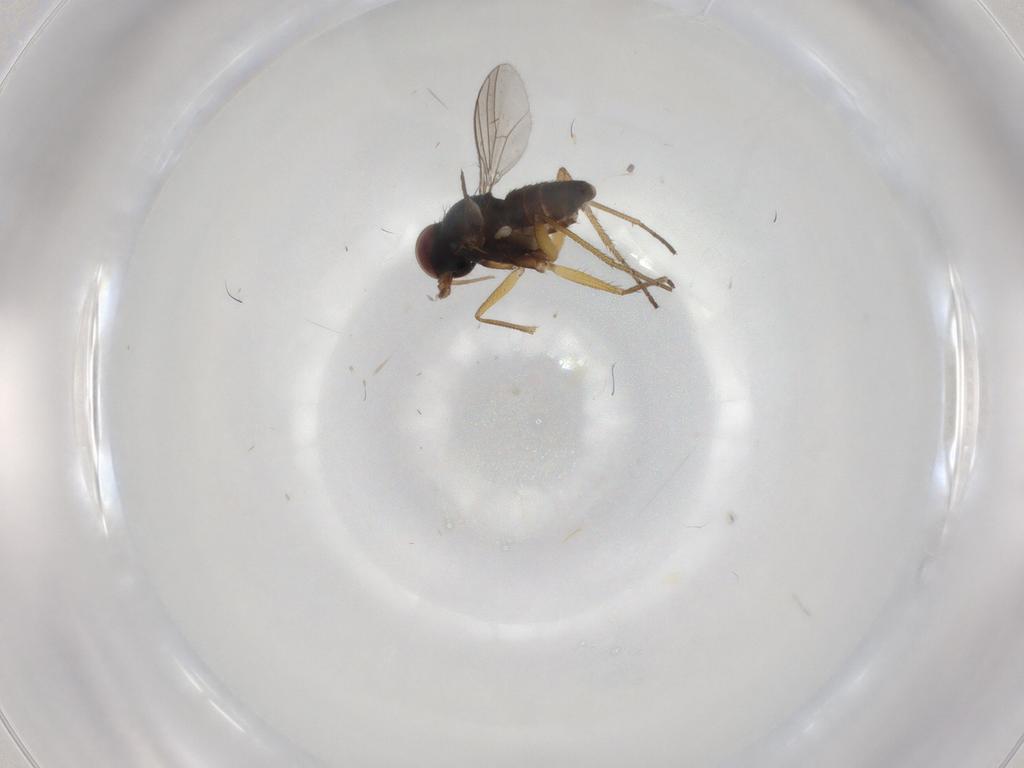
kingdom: Animalia
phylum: Arthropoda
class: Insecta
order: Diptera
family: Dolichopodidae
